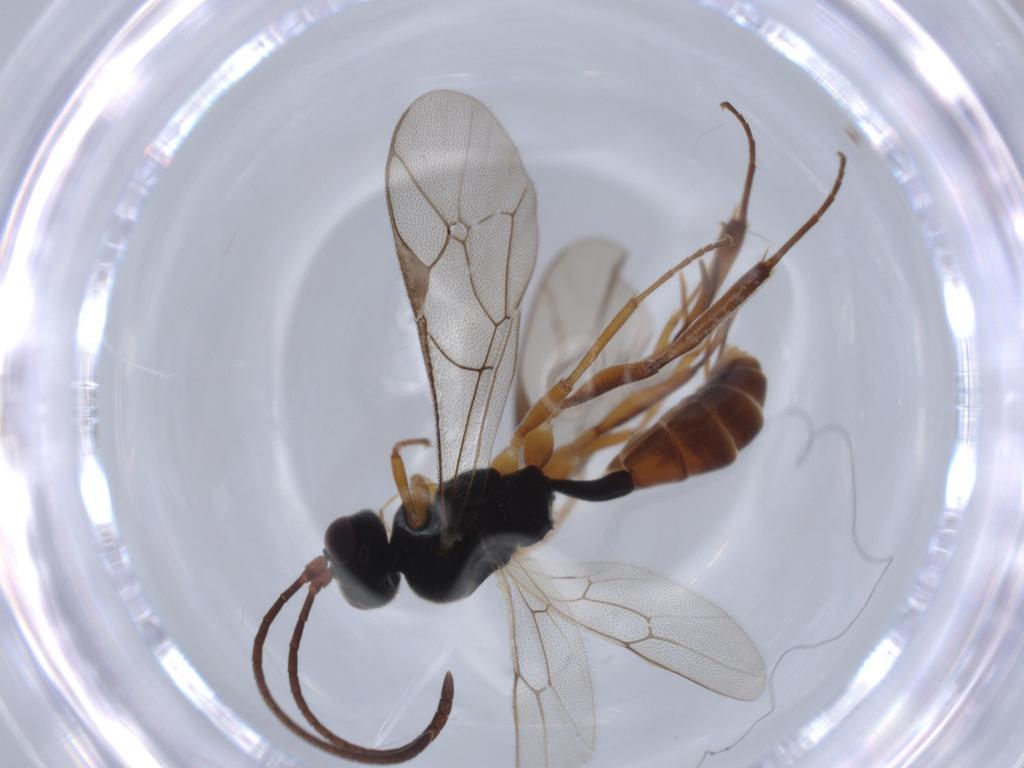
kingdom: Animalia
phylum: Arthropoda
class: Insecta
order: Hymenoptera
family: Ichneumonidae
